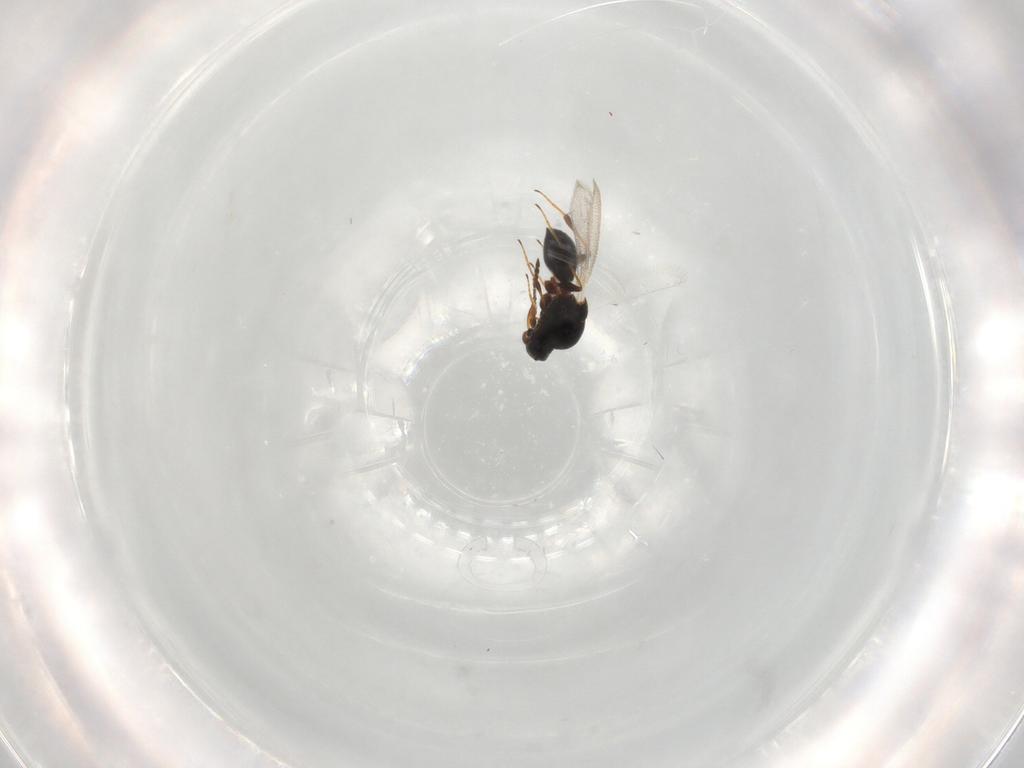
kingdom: Animalia
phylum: Arthropoda
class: Insecta
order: Hymenoptera
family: Platygastridae
